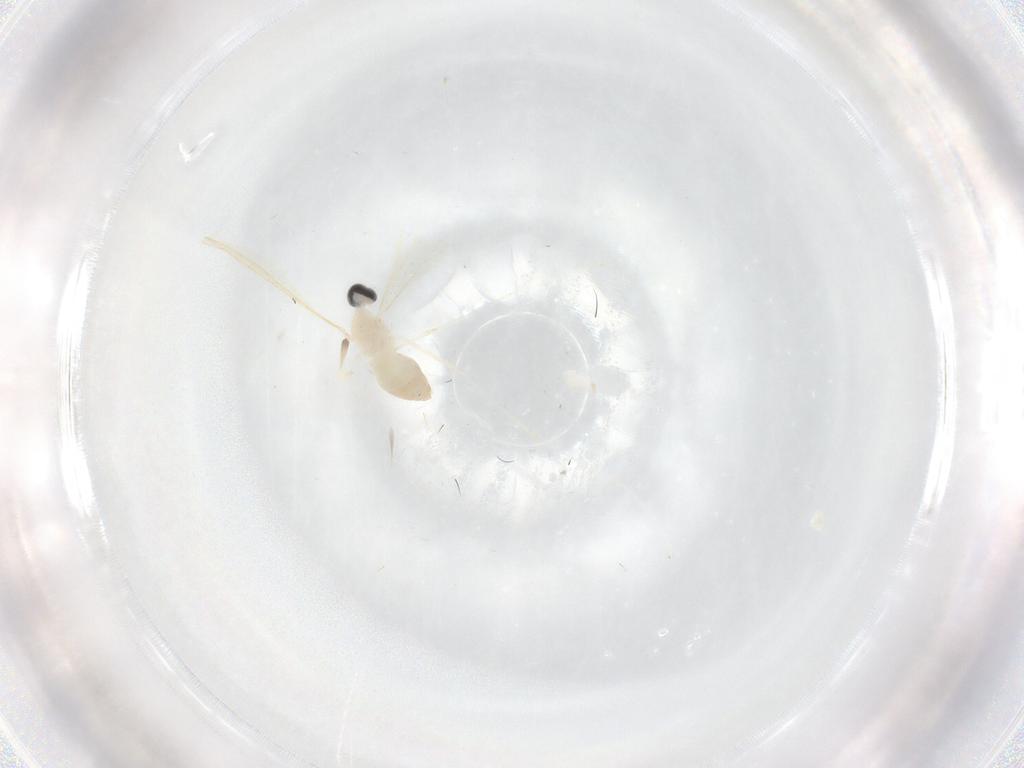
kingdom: Animalia
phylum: Arthropoda
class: Insecta
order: Diptera
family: Cecidomyiidae
